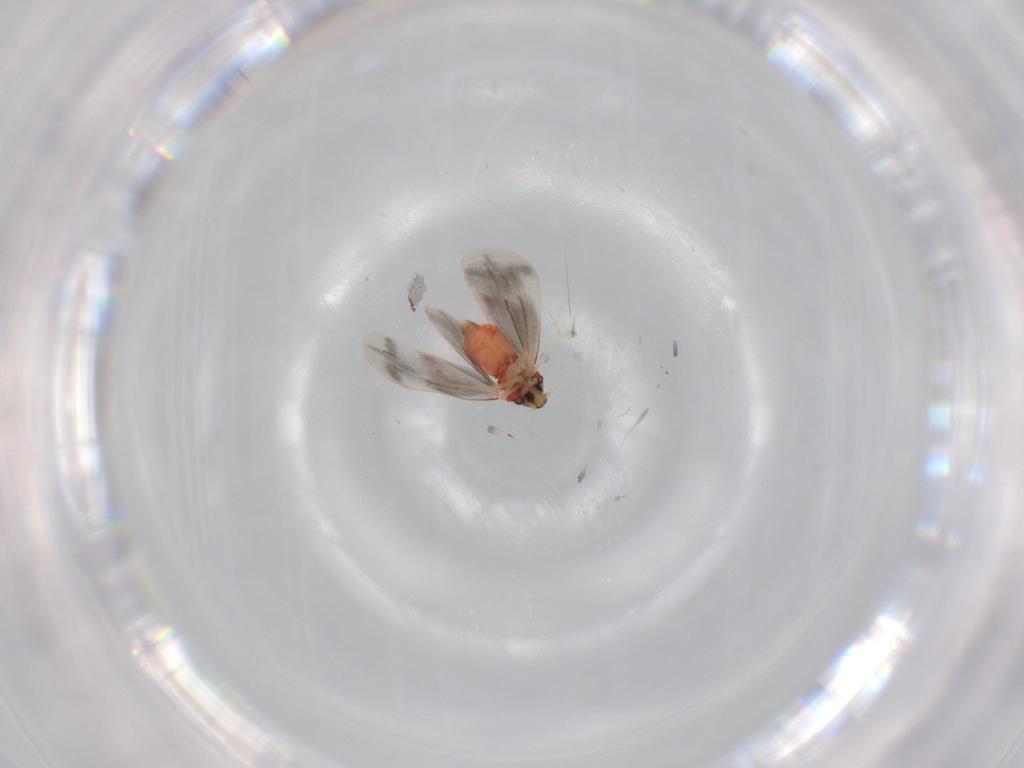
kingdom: Animalia
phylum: Arthropoda
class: Insecta
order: Hemiptera
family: Aleyrodidae
